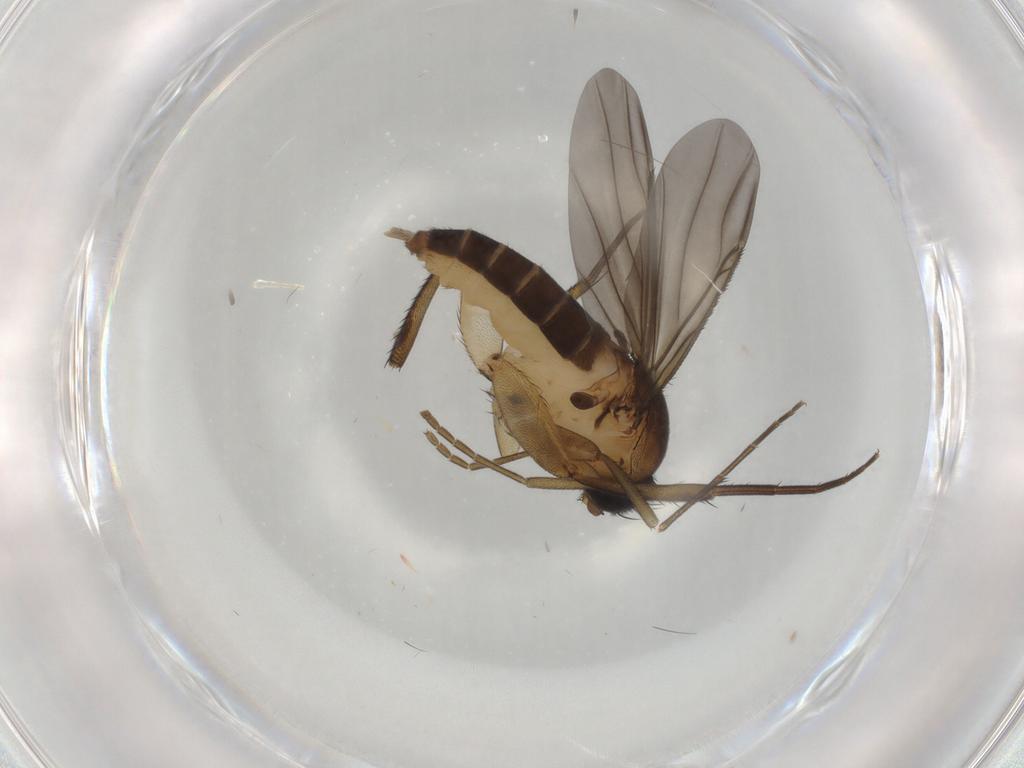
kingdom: Animalia
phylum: Arthropoda
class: Insecta
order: Diptera
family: Phoridae
